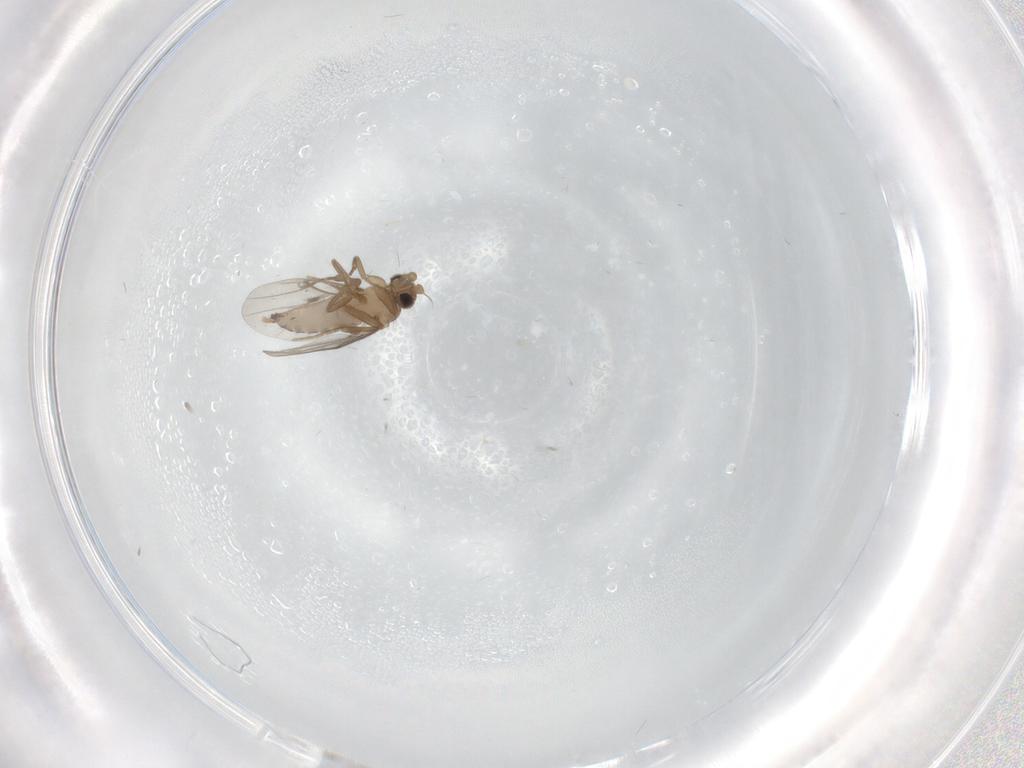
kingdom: Animalia
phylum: Arthropoda
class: Insecta
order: Diptera
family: Chironomidae
